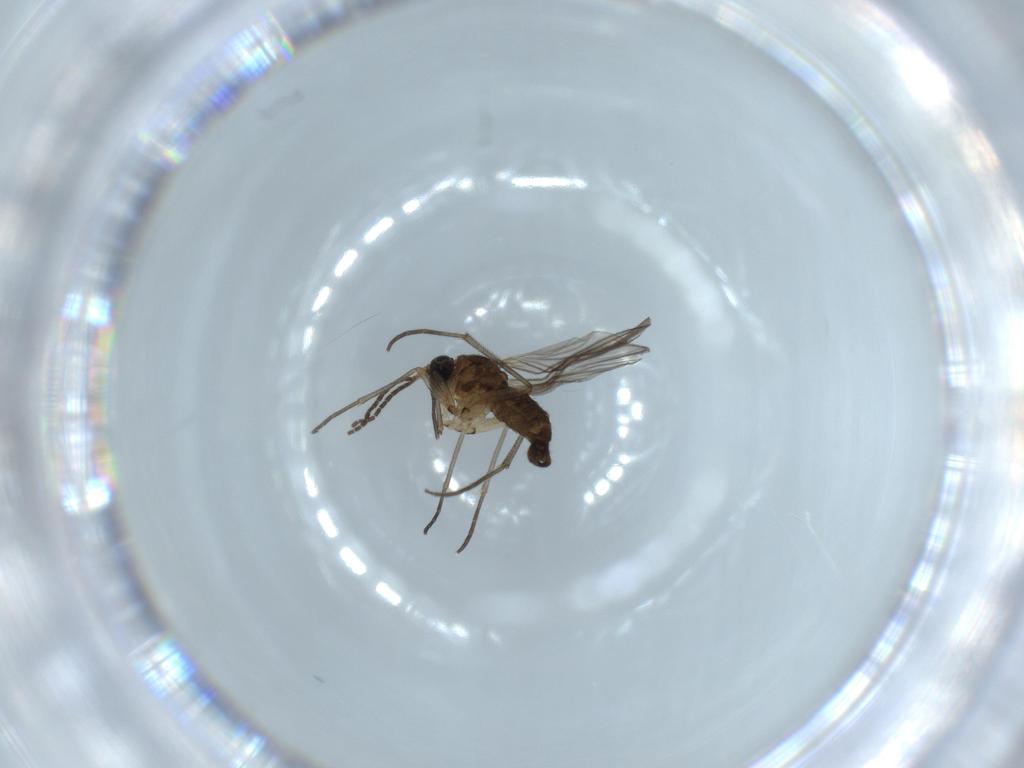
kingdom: Animalia
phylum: Arthropoda
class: Insecta
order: Diptera
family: Sciaridae
